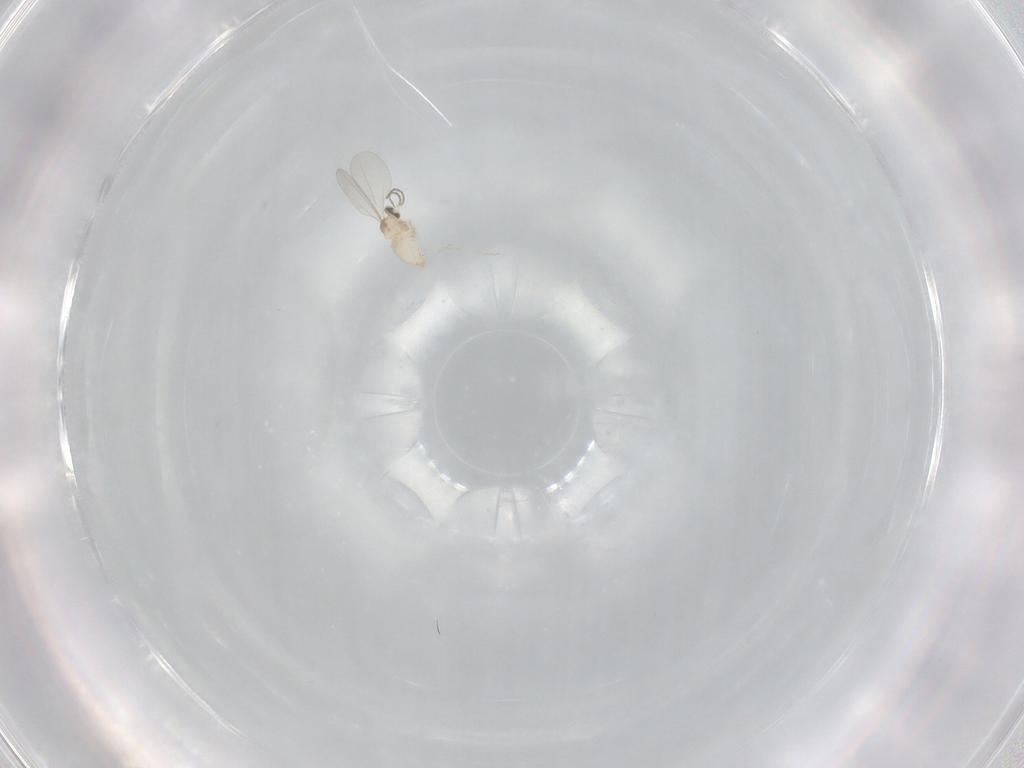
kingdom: Animalia
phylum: Arthropoda
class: Insecta
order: Diptera
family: Cecidomyiidae
